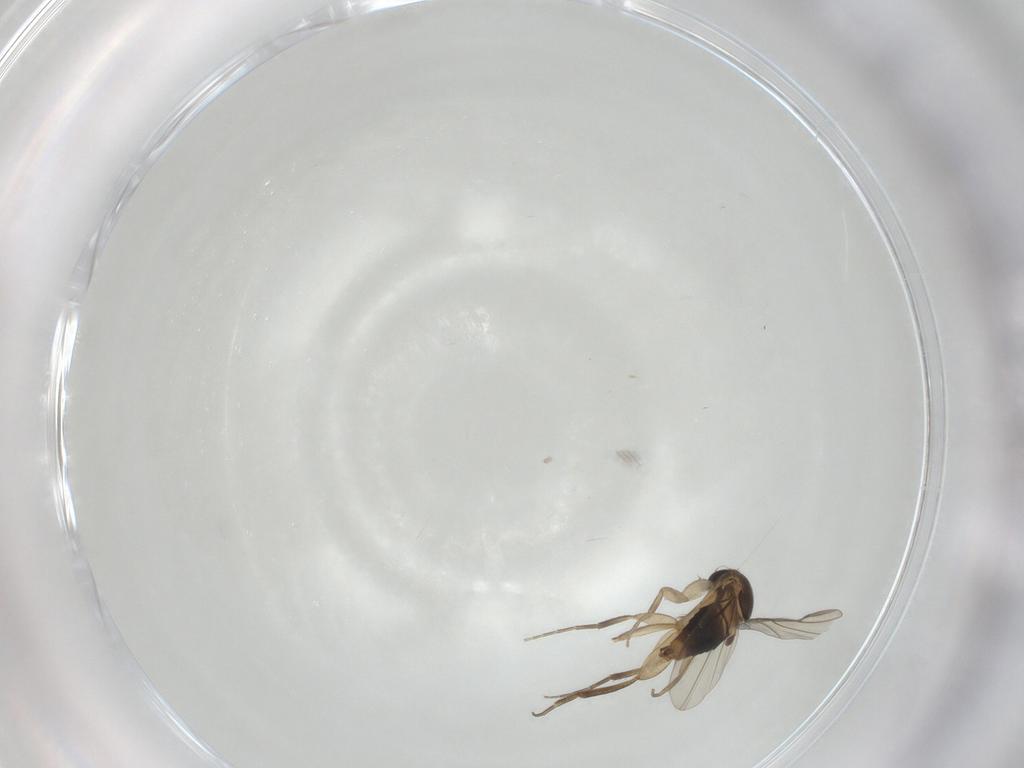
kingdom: Animalia
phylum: Arthropoda
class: Insecta
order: Diptera
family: Phoridae
